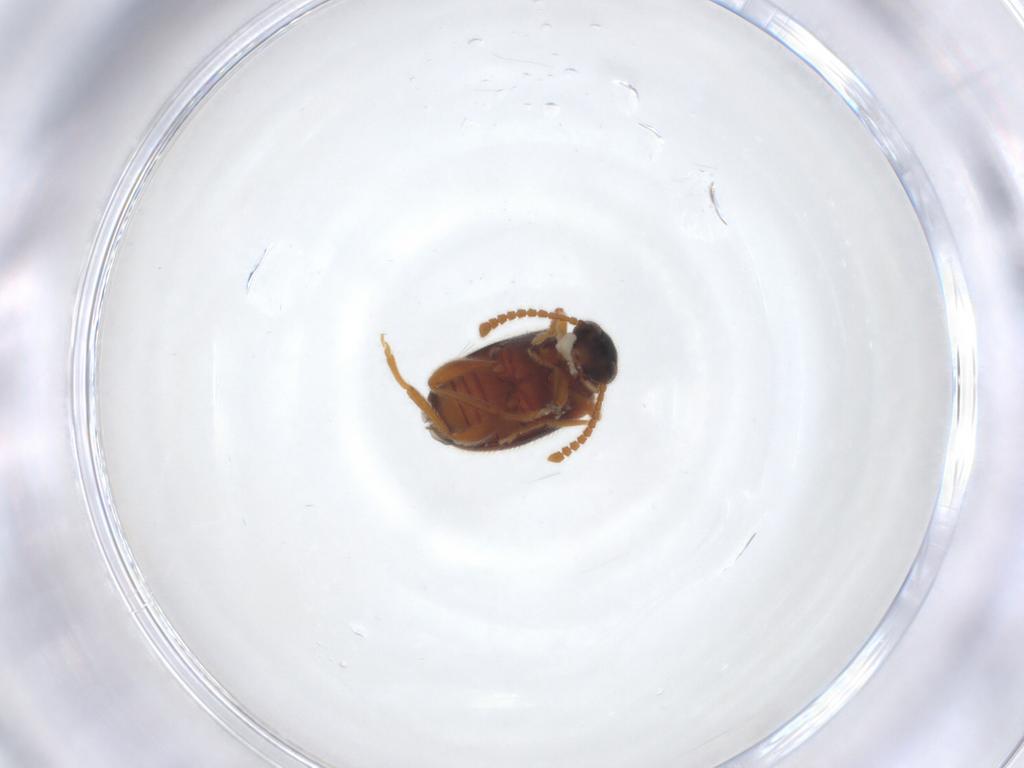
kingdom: Animalia
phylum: Arthropoda
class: Insecta
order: Coleoptera
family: Aderidae
